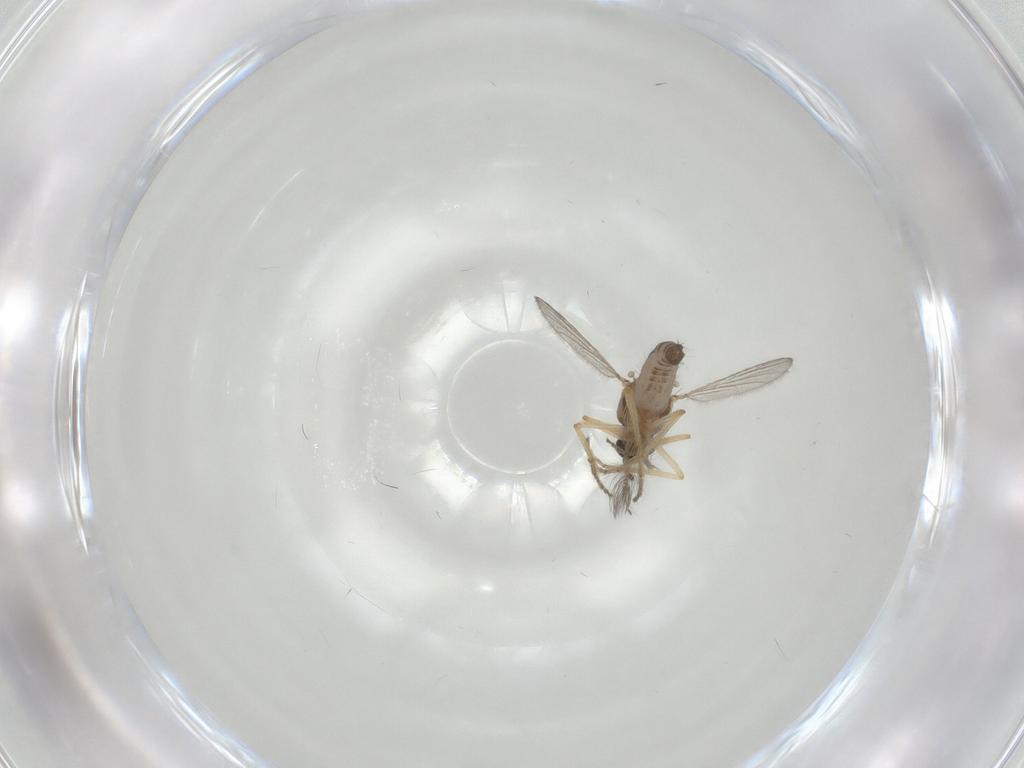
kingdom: Animalia
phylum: Arthropoda
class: Insecta
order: Diptera
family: Ceratopogonidae
